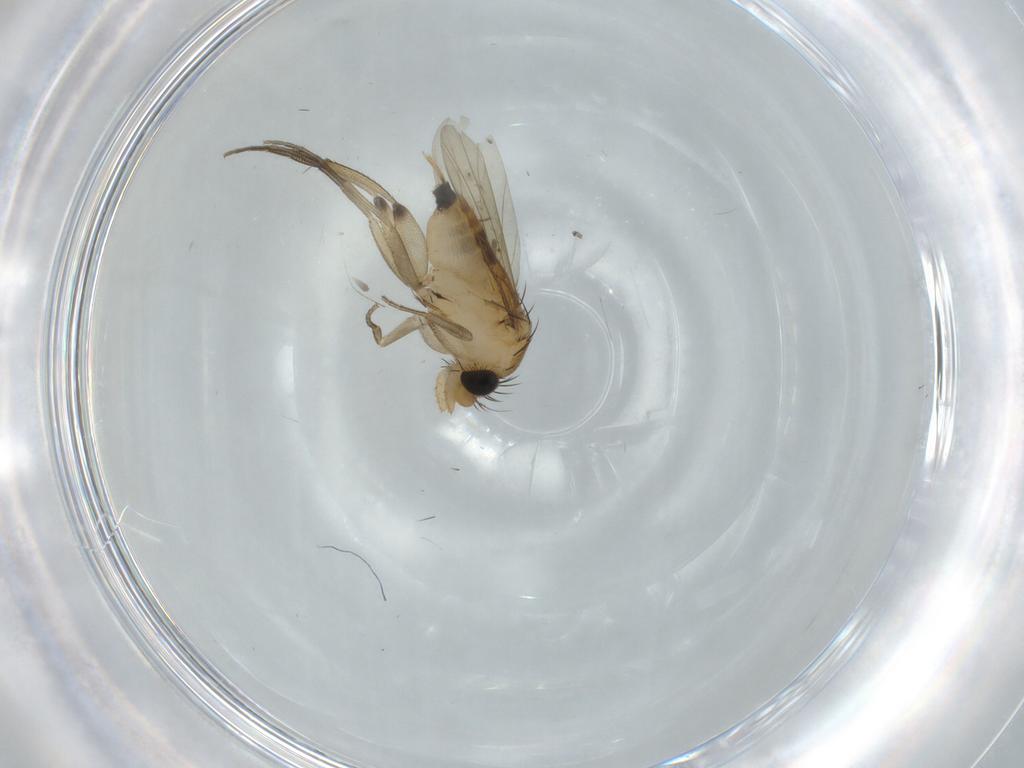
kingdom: Animalia
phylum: Arthropoda
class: Insecta
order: Diptera
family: Phoridae
